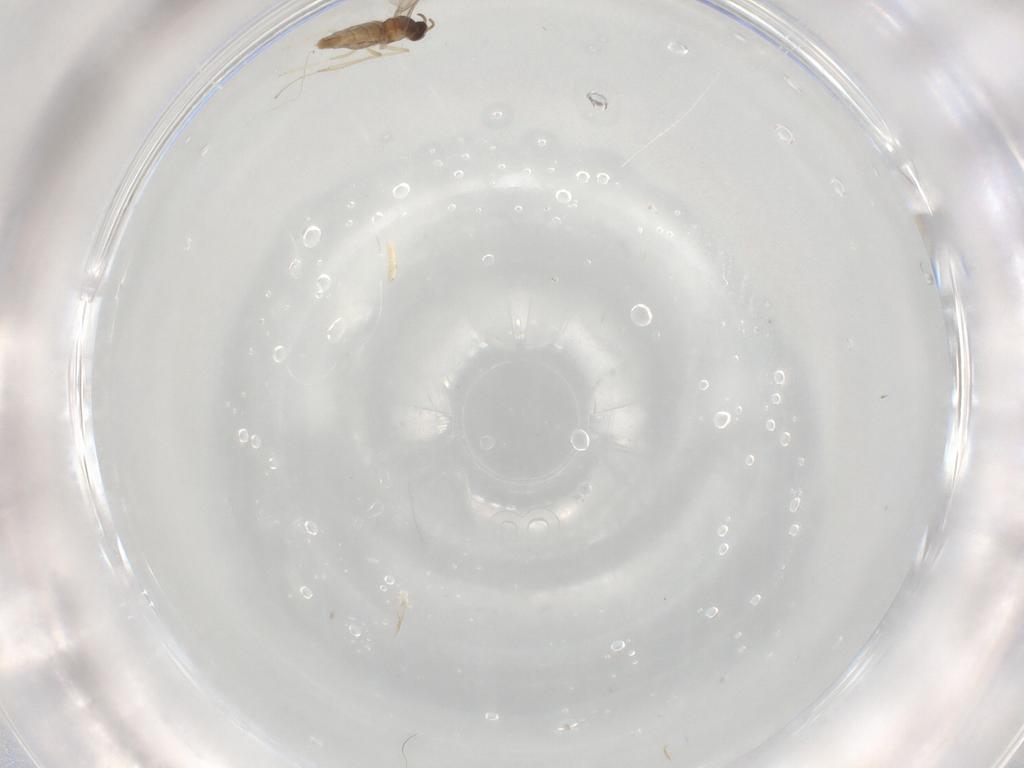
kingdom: Animalia
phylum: Arthropoda
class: Insecta
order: Diptera
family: Cecidomyiidae
